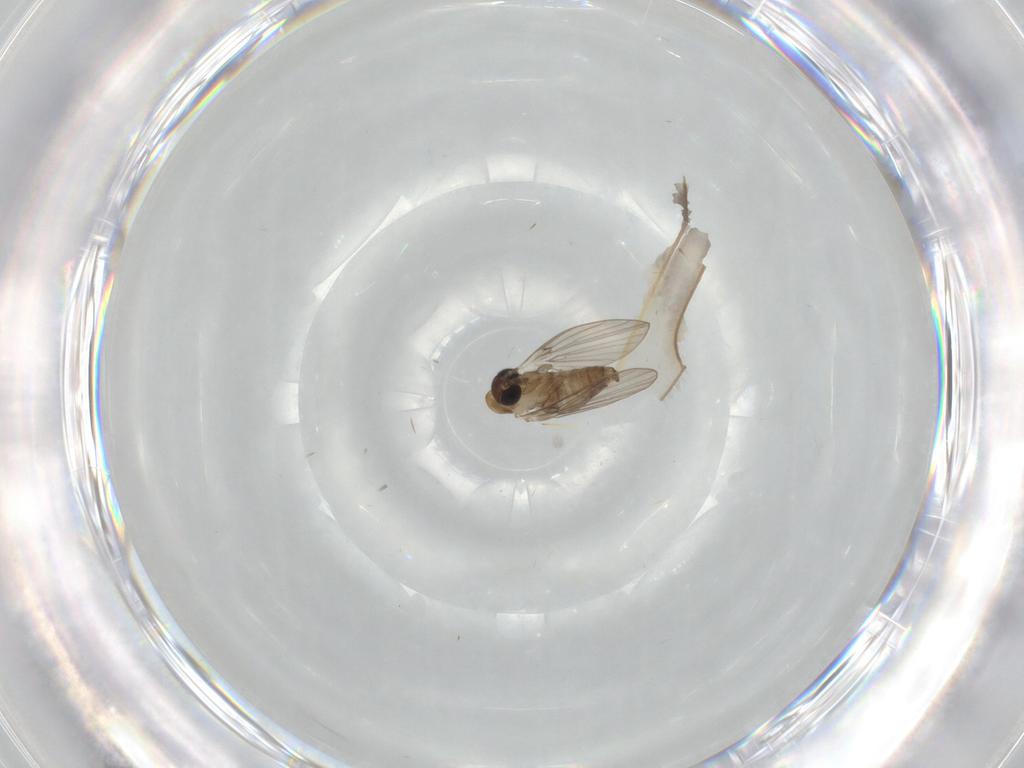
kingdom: Animalia
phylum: Arthropoda
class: Insecta
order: Diptera
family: Limoniidae
